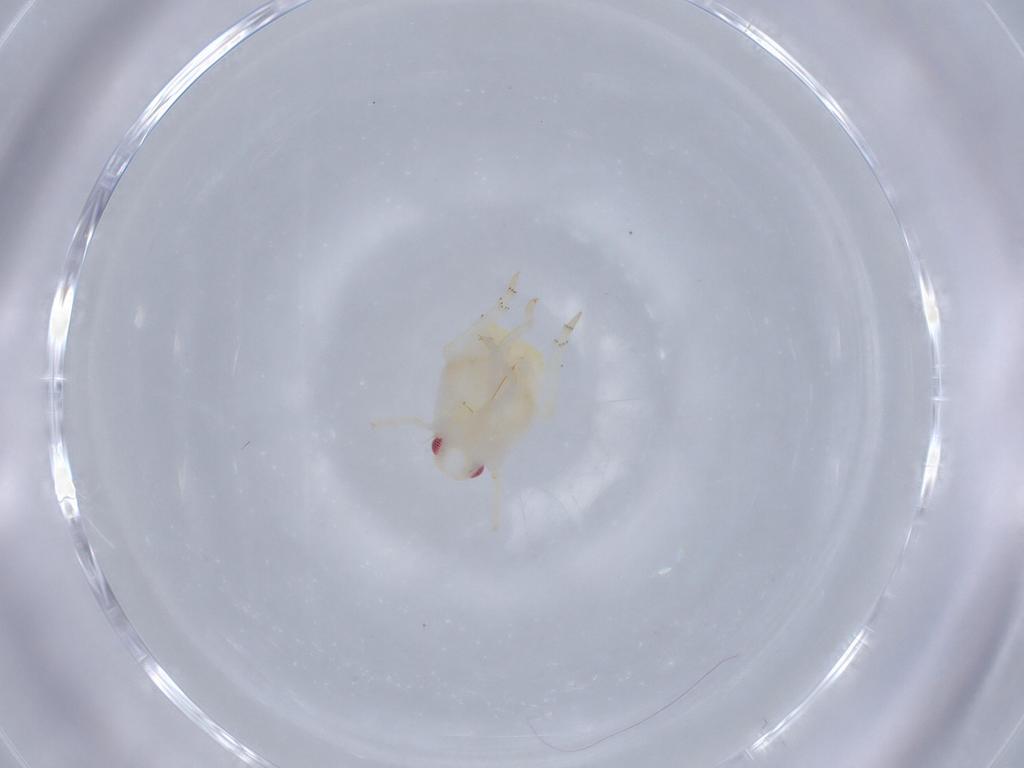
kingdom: Animalia
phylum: Arthropoda
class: Insecta
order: Hemiptera
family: Flatidae
